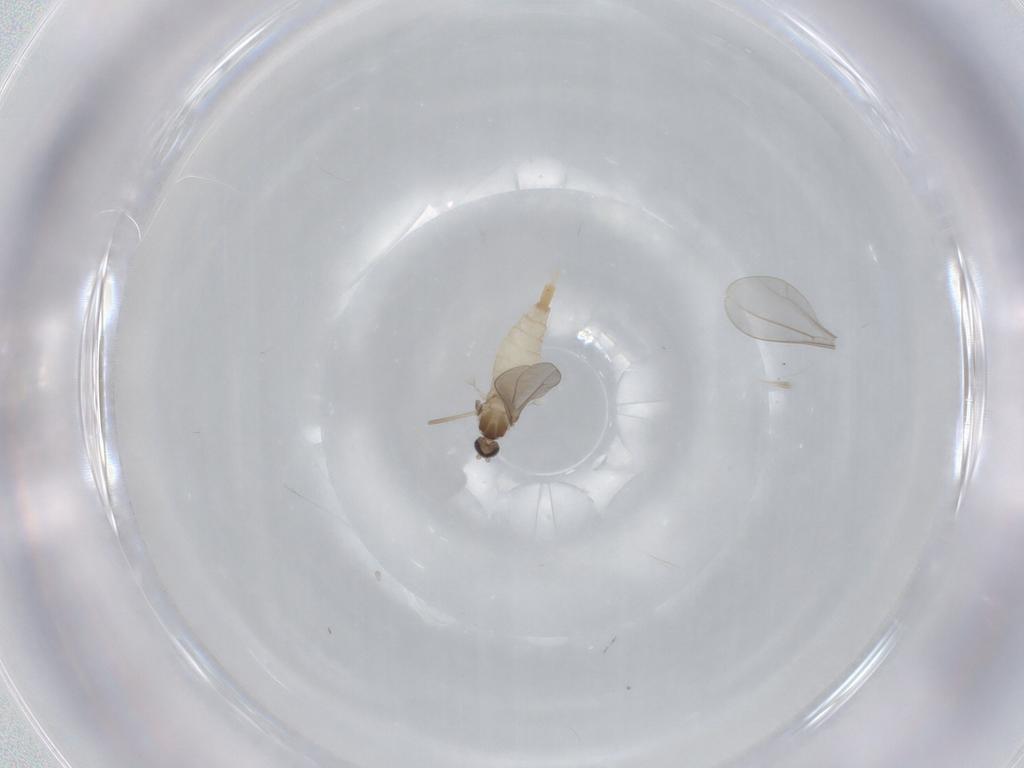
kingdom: Animalia
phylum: Arthropoda
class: Insecta
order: Diptera
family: Cecidomyiidae
